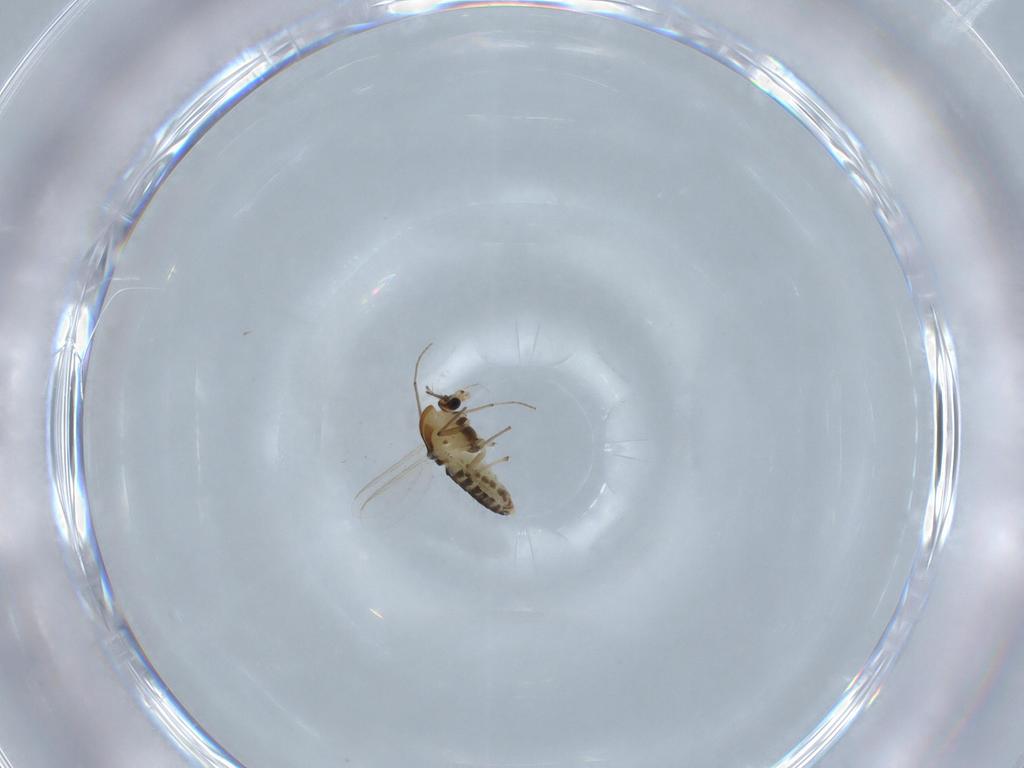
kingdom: Animalia
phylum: Arthropoda
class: Insecta
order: Diptera
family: Chironomidae
